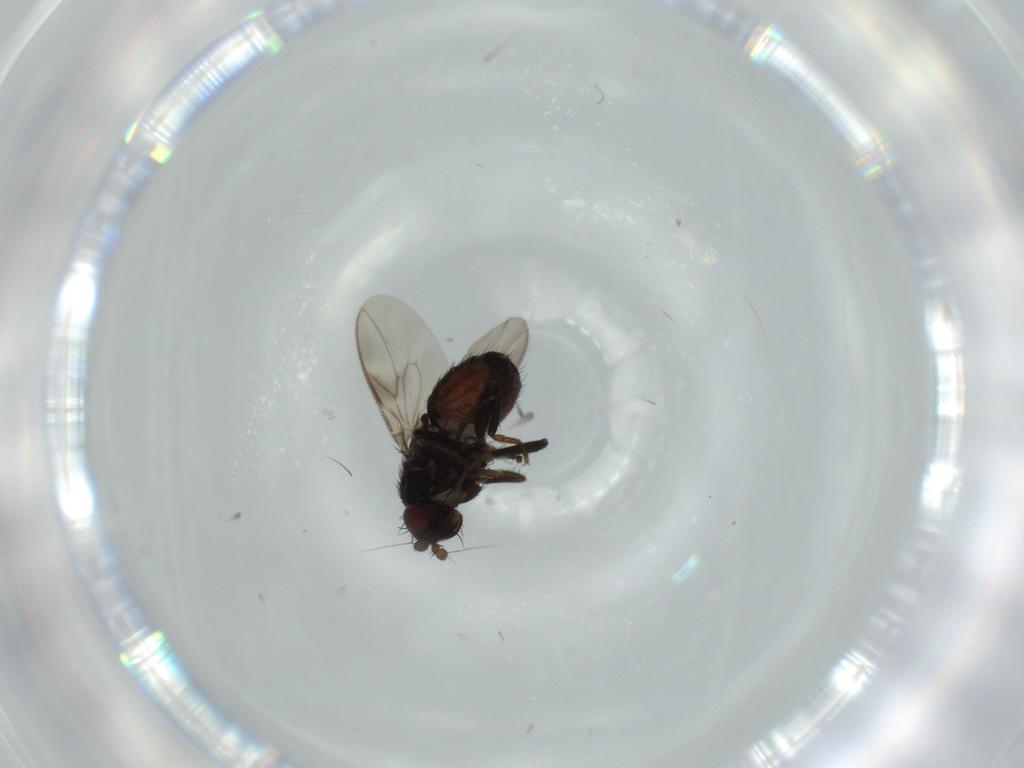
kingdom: Animalia
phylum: Arthropoda
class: Insecta
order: Diptera
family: Sphaeroceridae
